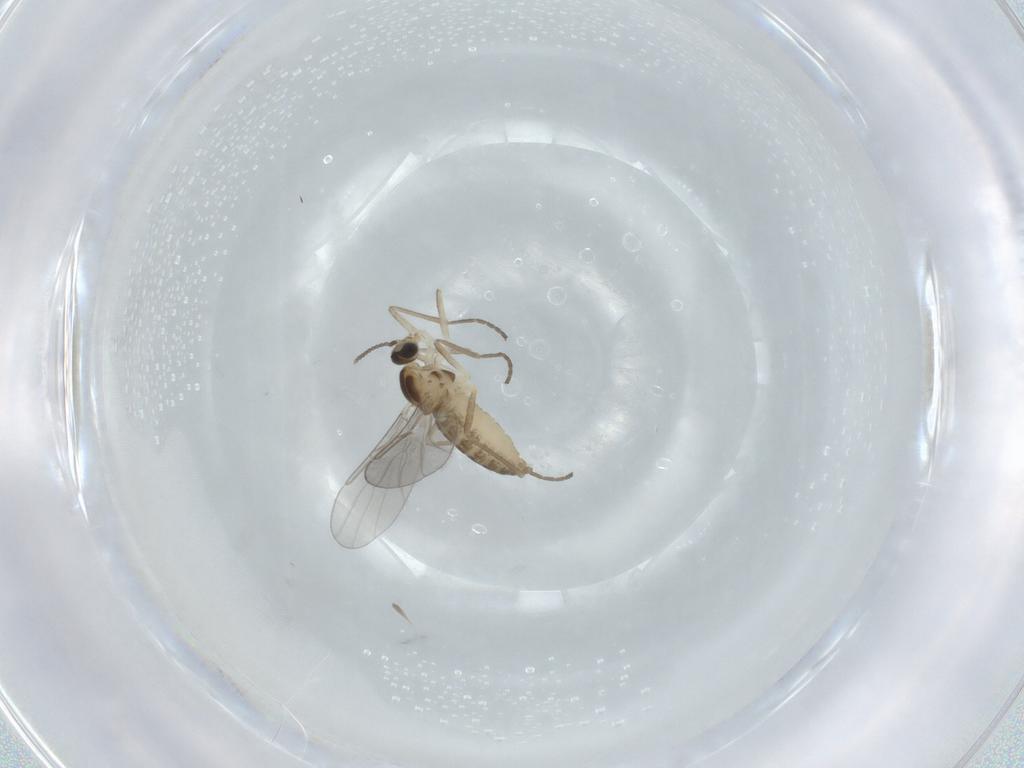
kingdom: Animalia
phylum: Arthropoda
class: Insecta
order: Diptera
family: Cecidomyiidae
